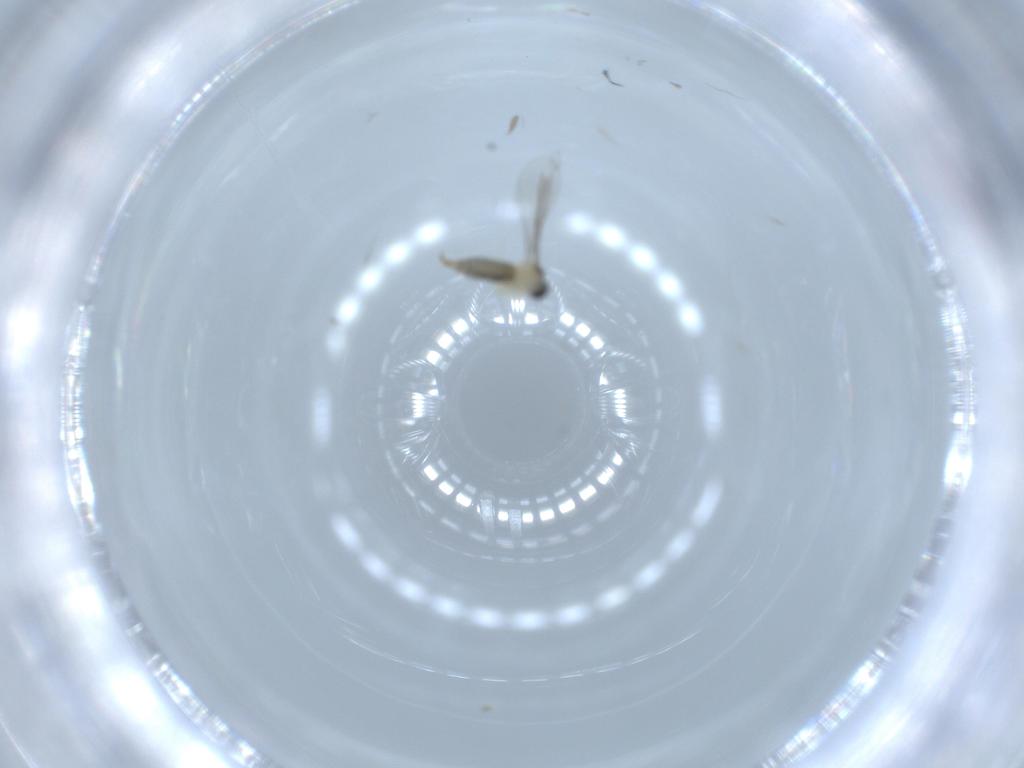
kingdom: Animalia
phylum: Arthropoda
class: Insecta
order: Diptera
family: Cecidomyiidae
